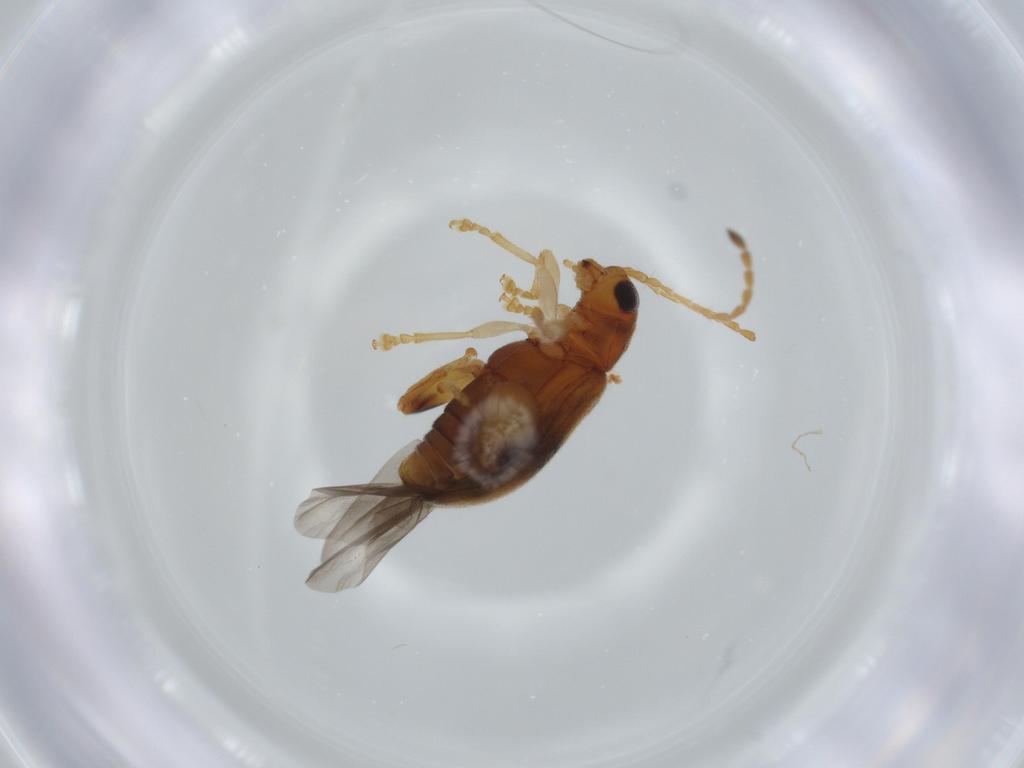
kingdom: Animalia
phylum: Arthropoda
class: Insecta
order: Coleoptera
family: Chrysomelidae
